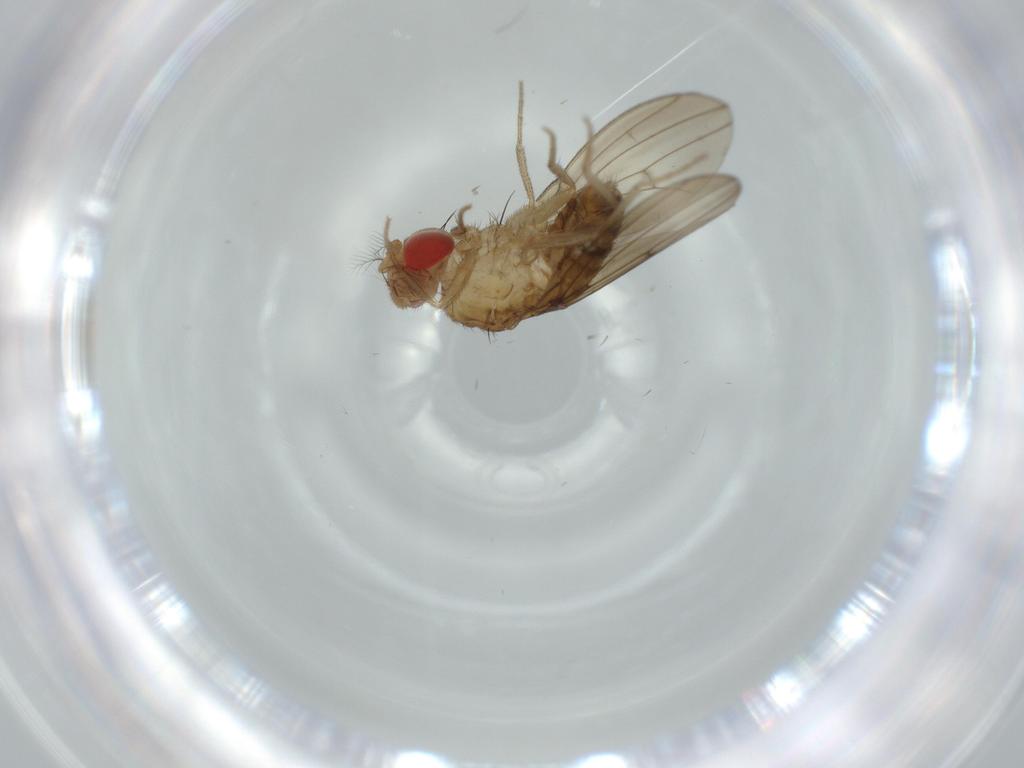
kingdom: Animalia
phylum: Arthropoda
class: Insecta
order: Diptera
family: Drosophilidae
